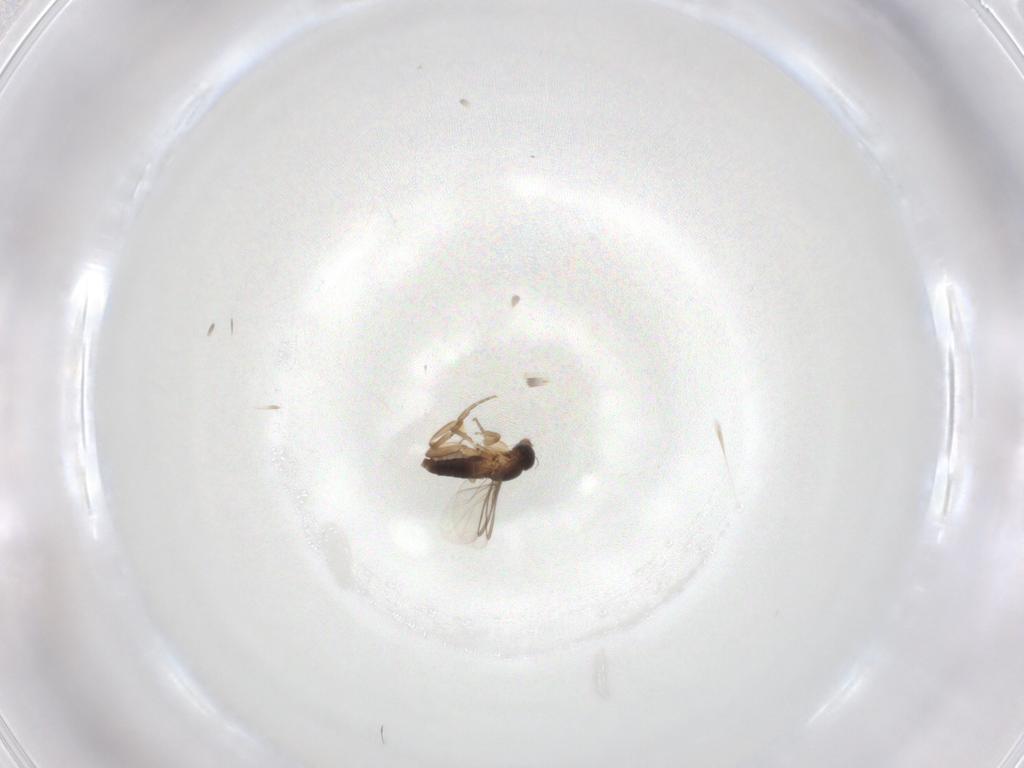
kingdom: Animalia
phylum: Arthropoda
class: Insecta
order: Diptera
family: Phoridae
